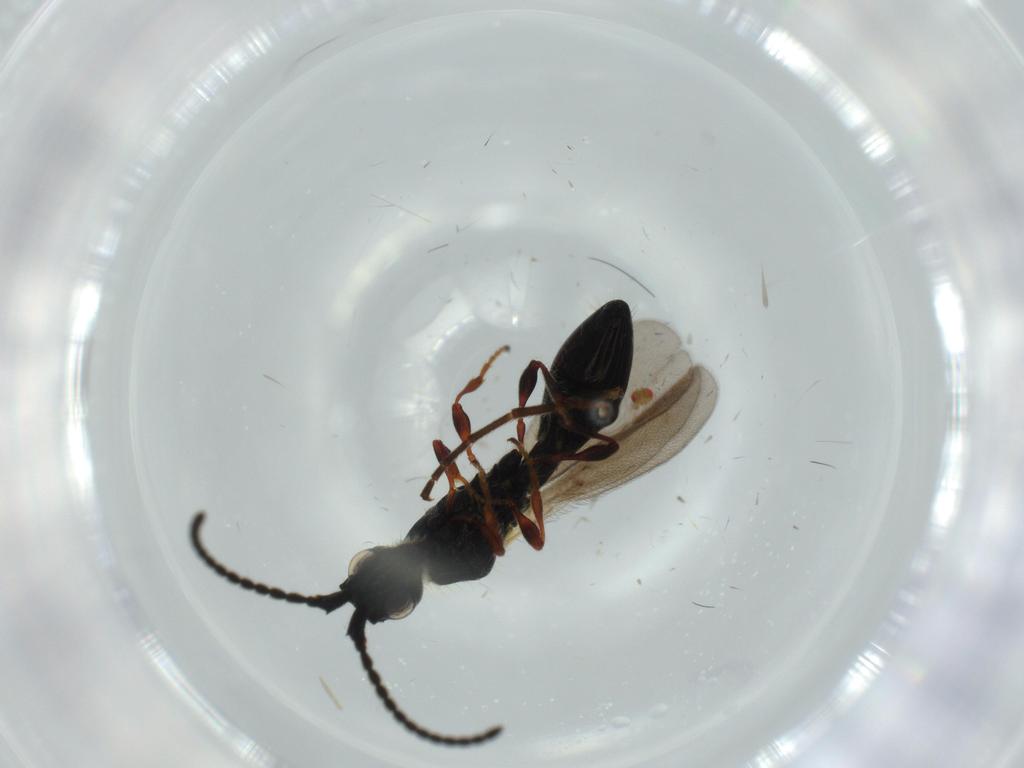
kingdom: Animalia
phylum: Arthropoda
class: Insecta
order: Hymenoptera
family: Diapriidae
